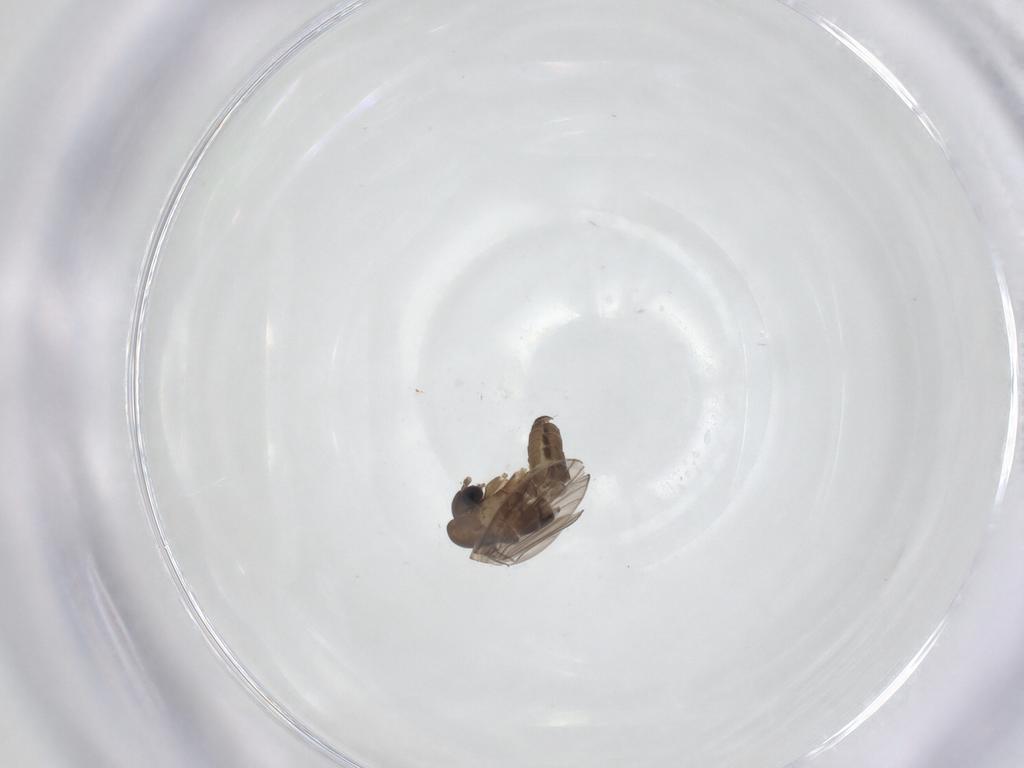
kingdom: Animalia
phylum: Arthropoda
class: Insecta
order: Diptera
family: Psychodidae
